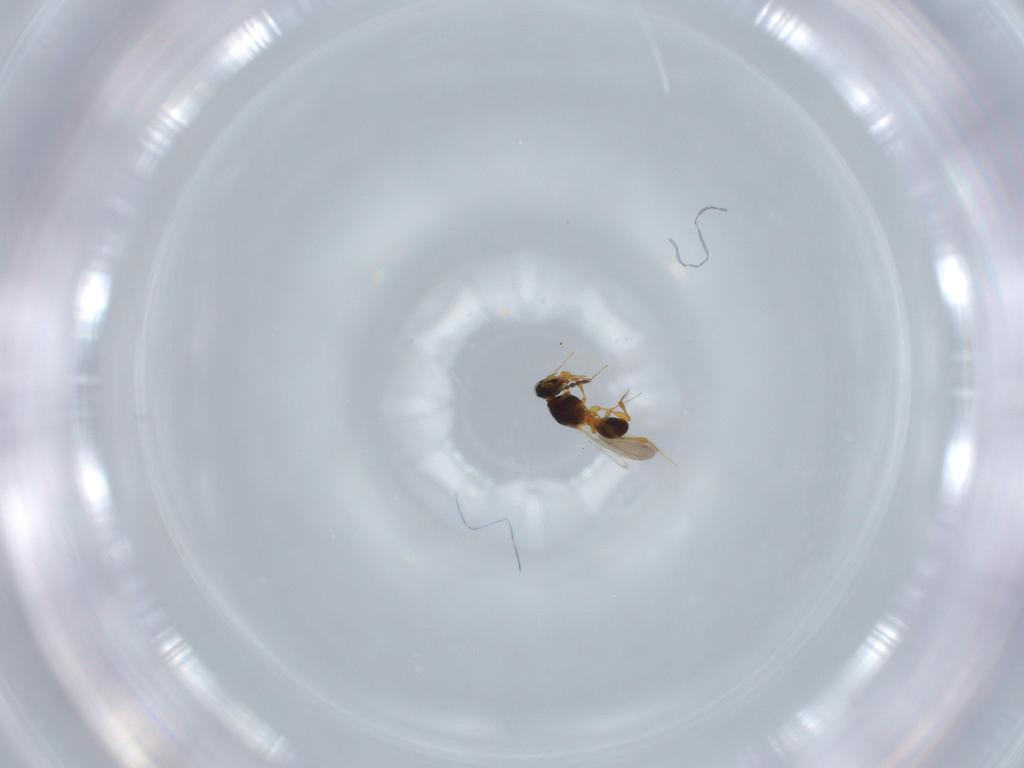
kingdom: Animalia
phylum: Arthropoda
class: Insecta
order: Hymenoptera
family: Platygastridae
